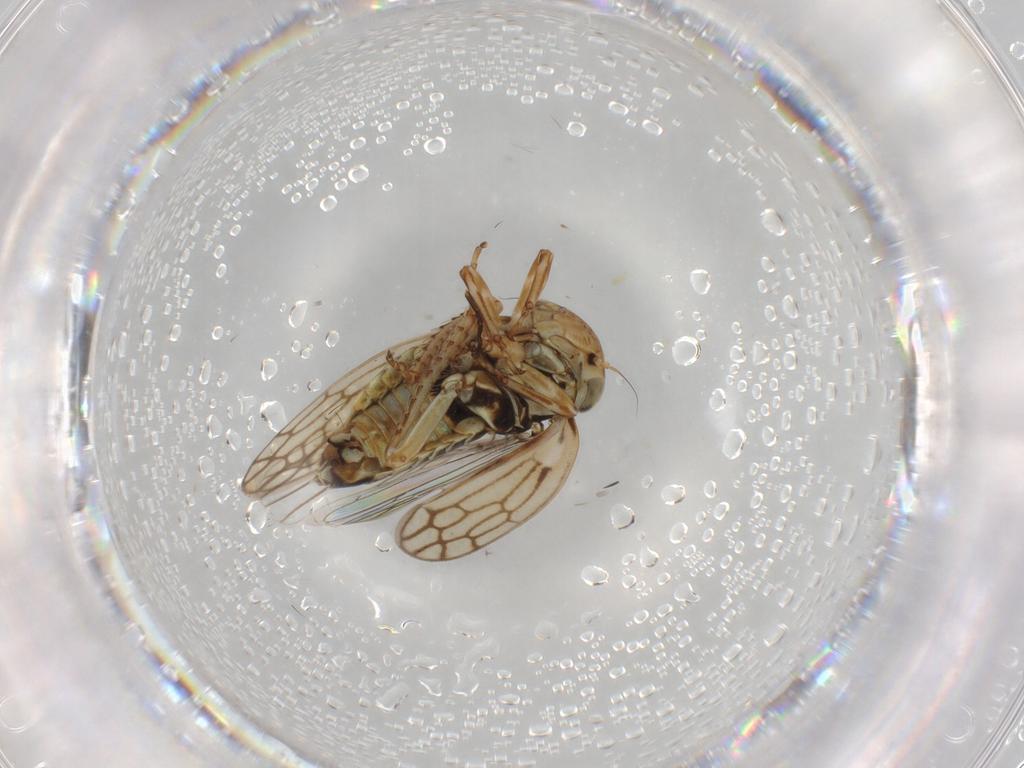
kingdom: Animalia
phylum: Arthropoda
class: Insecta
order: Hemiptera
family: Cicadellidae
